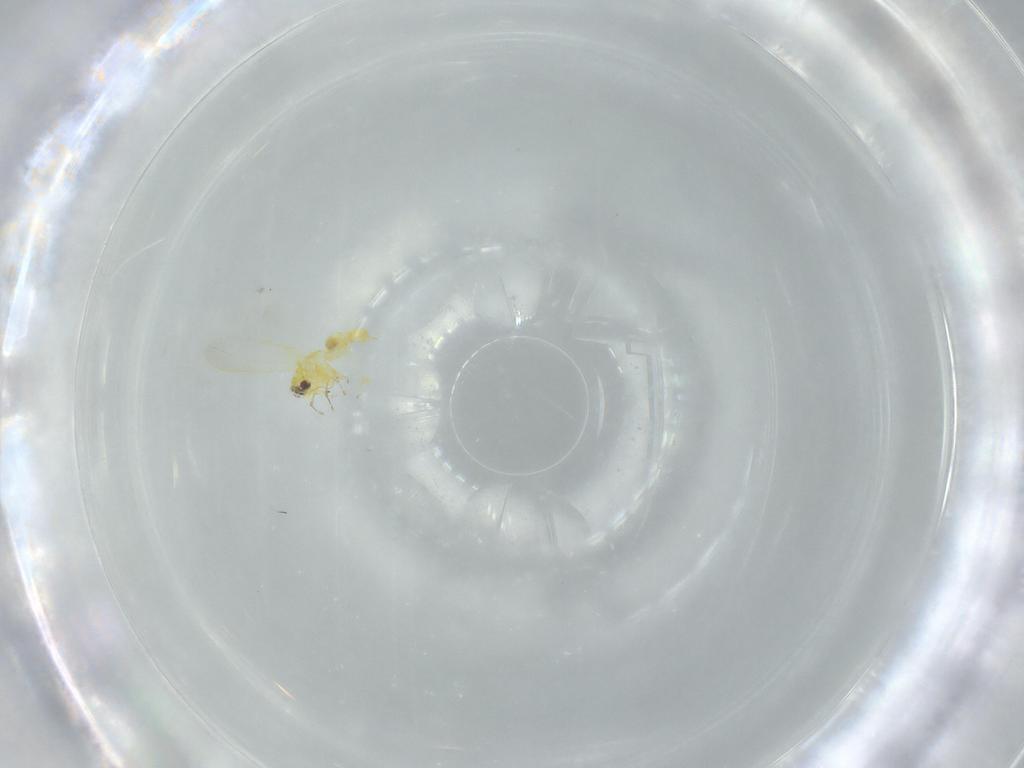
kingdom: Animalia
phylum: Arthropoda
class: Insecta
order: Hemiptera
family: Aleyrodidae
